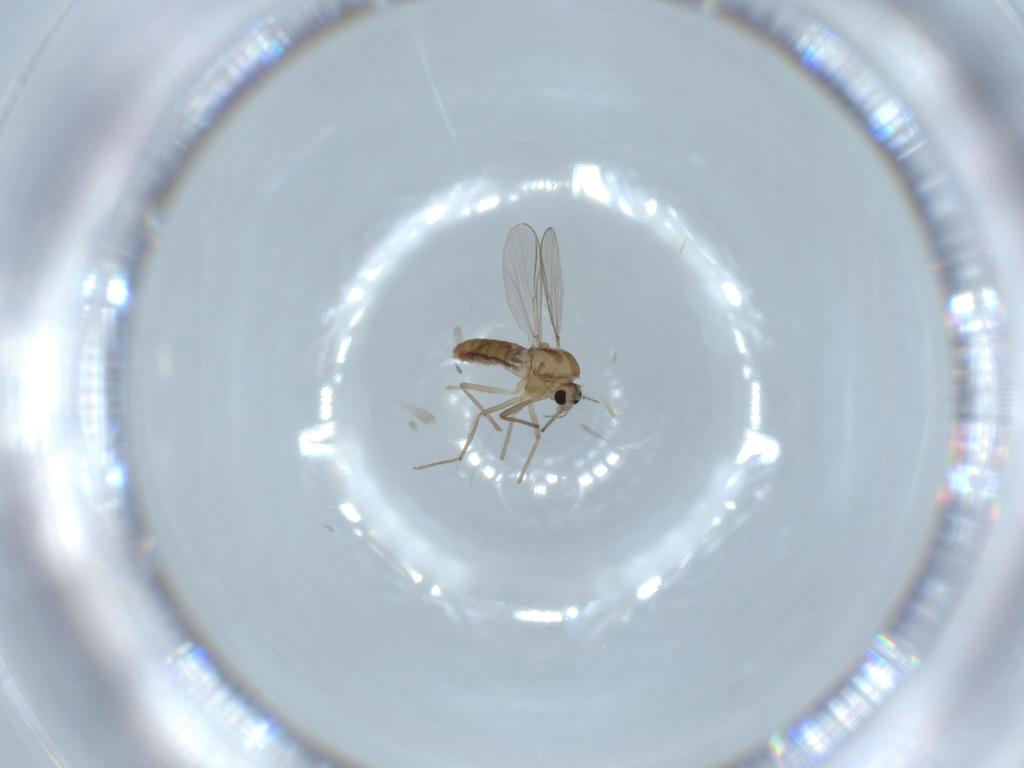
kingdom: Animalia
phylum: Arthropoda
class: Insecta
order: Diptera
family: Chironomidae
